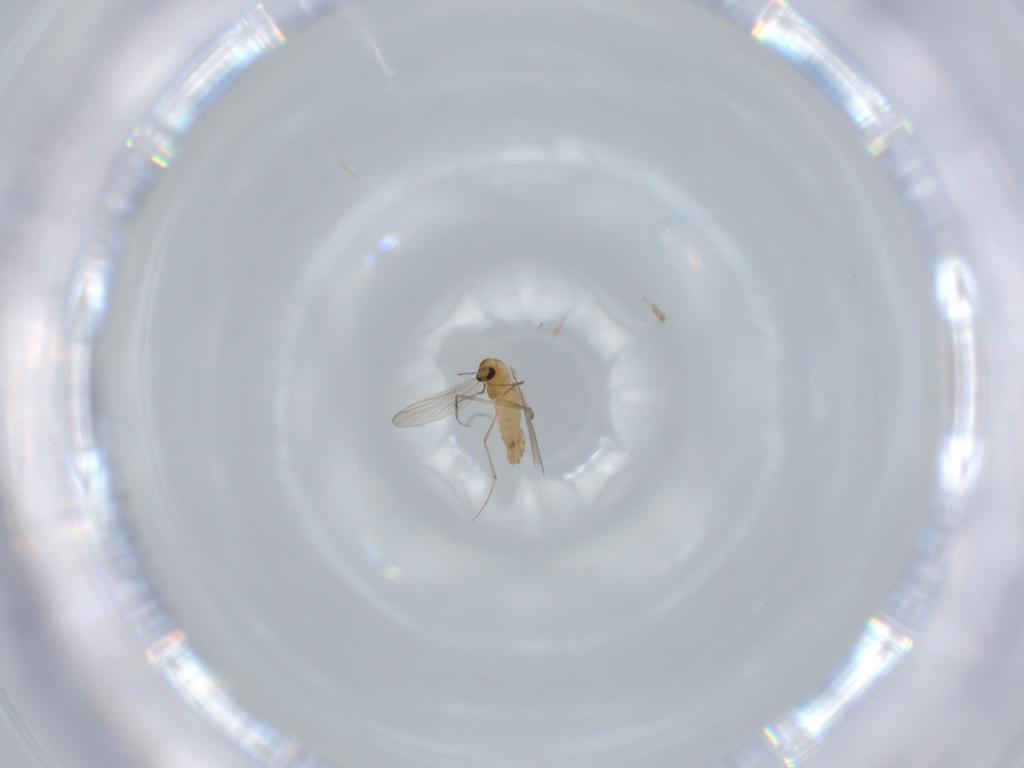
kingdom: Animalia
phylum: Arthropoda
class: Insecta
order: Diptera
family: Chironomidae
